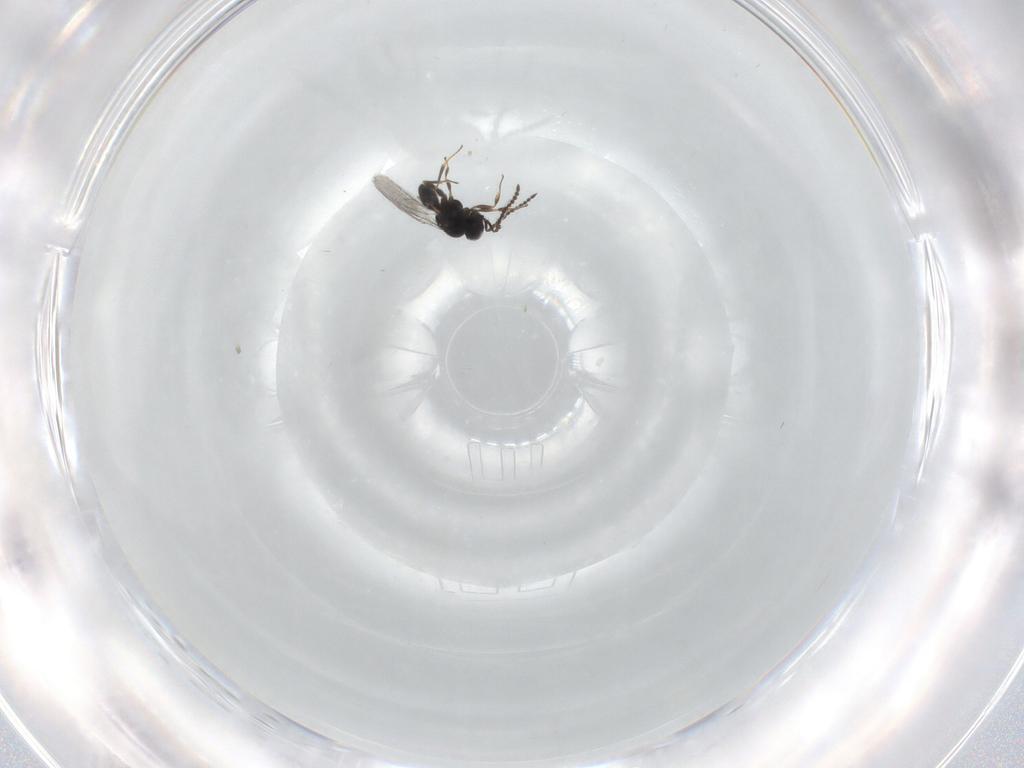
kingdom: Animalia
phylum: Arthropoda
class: Insecta
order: Hymenoptera
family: Scelionidae
